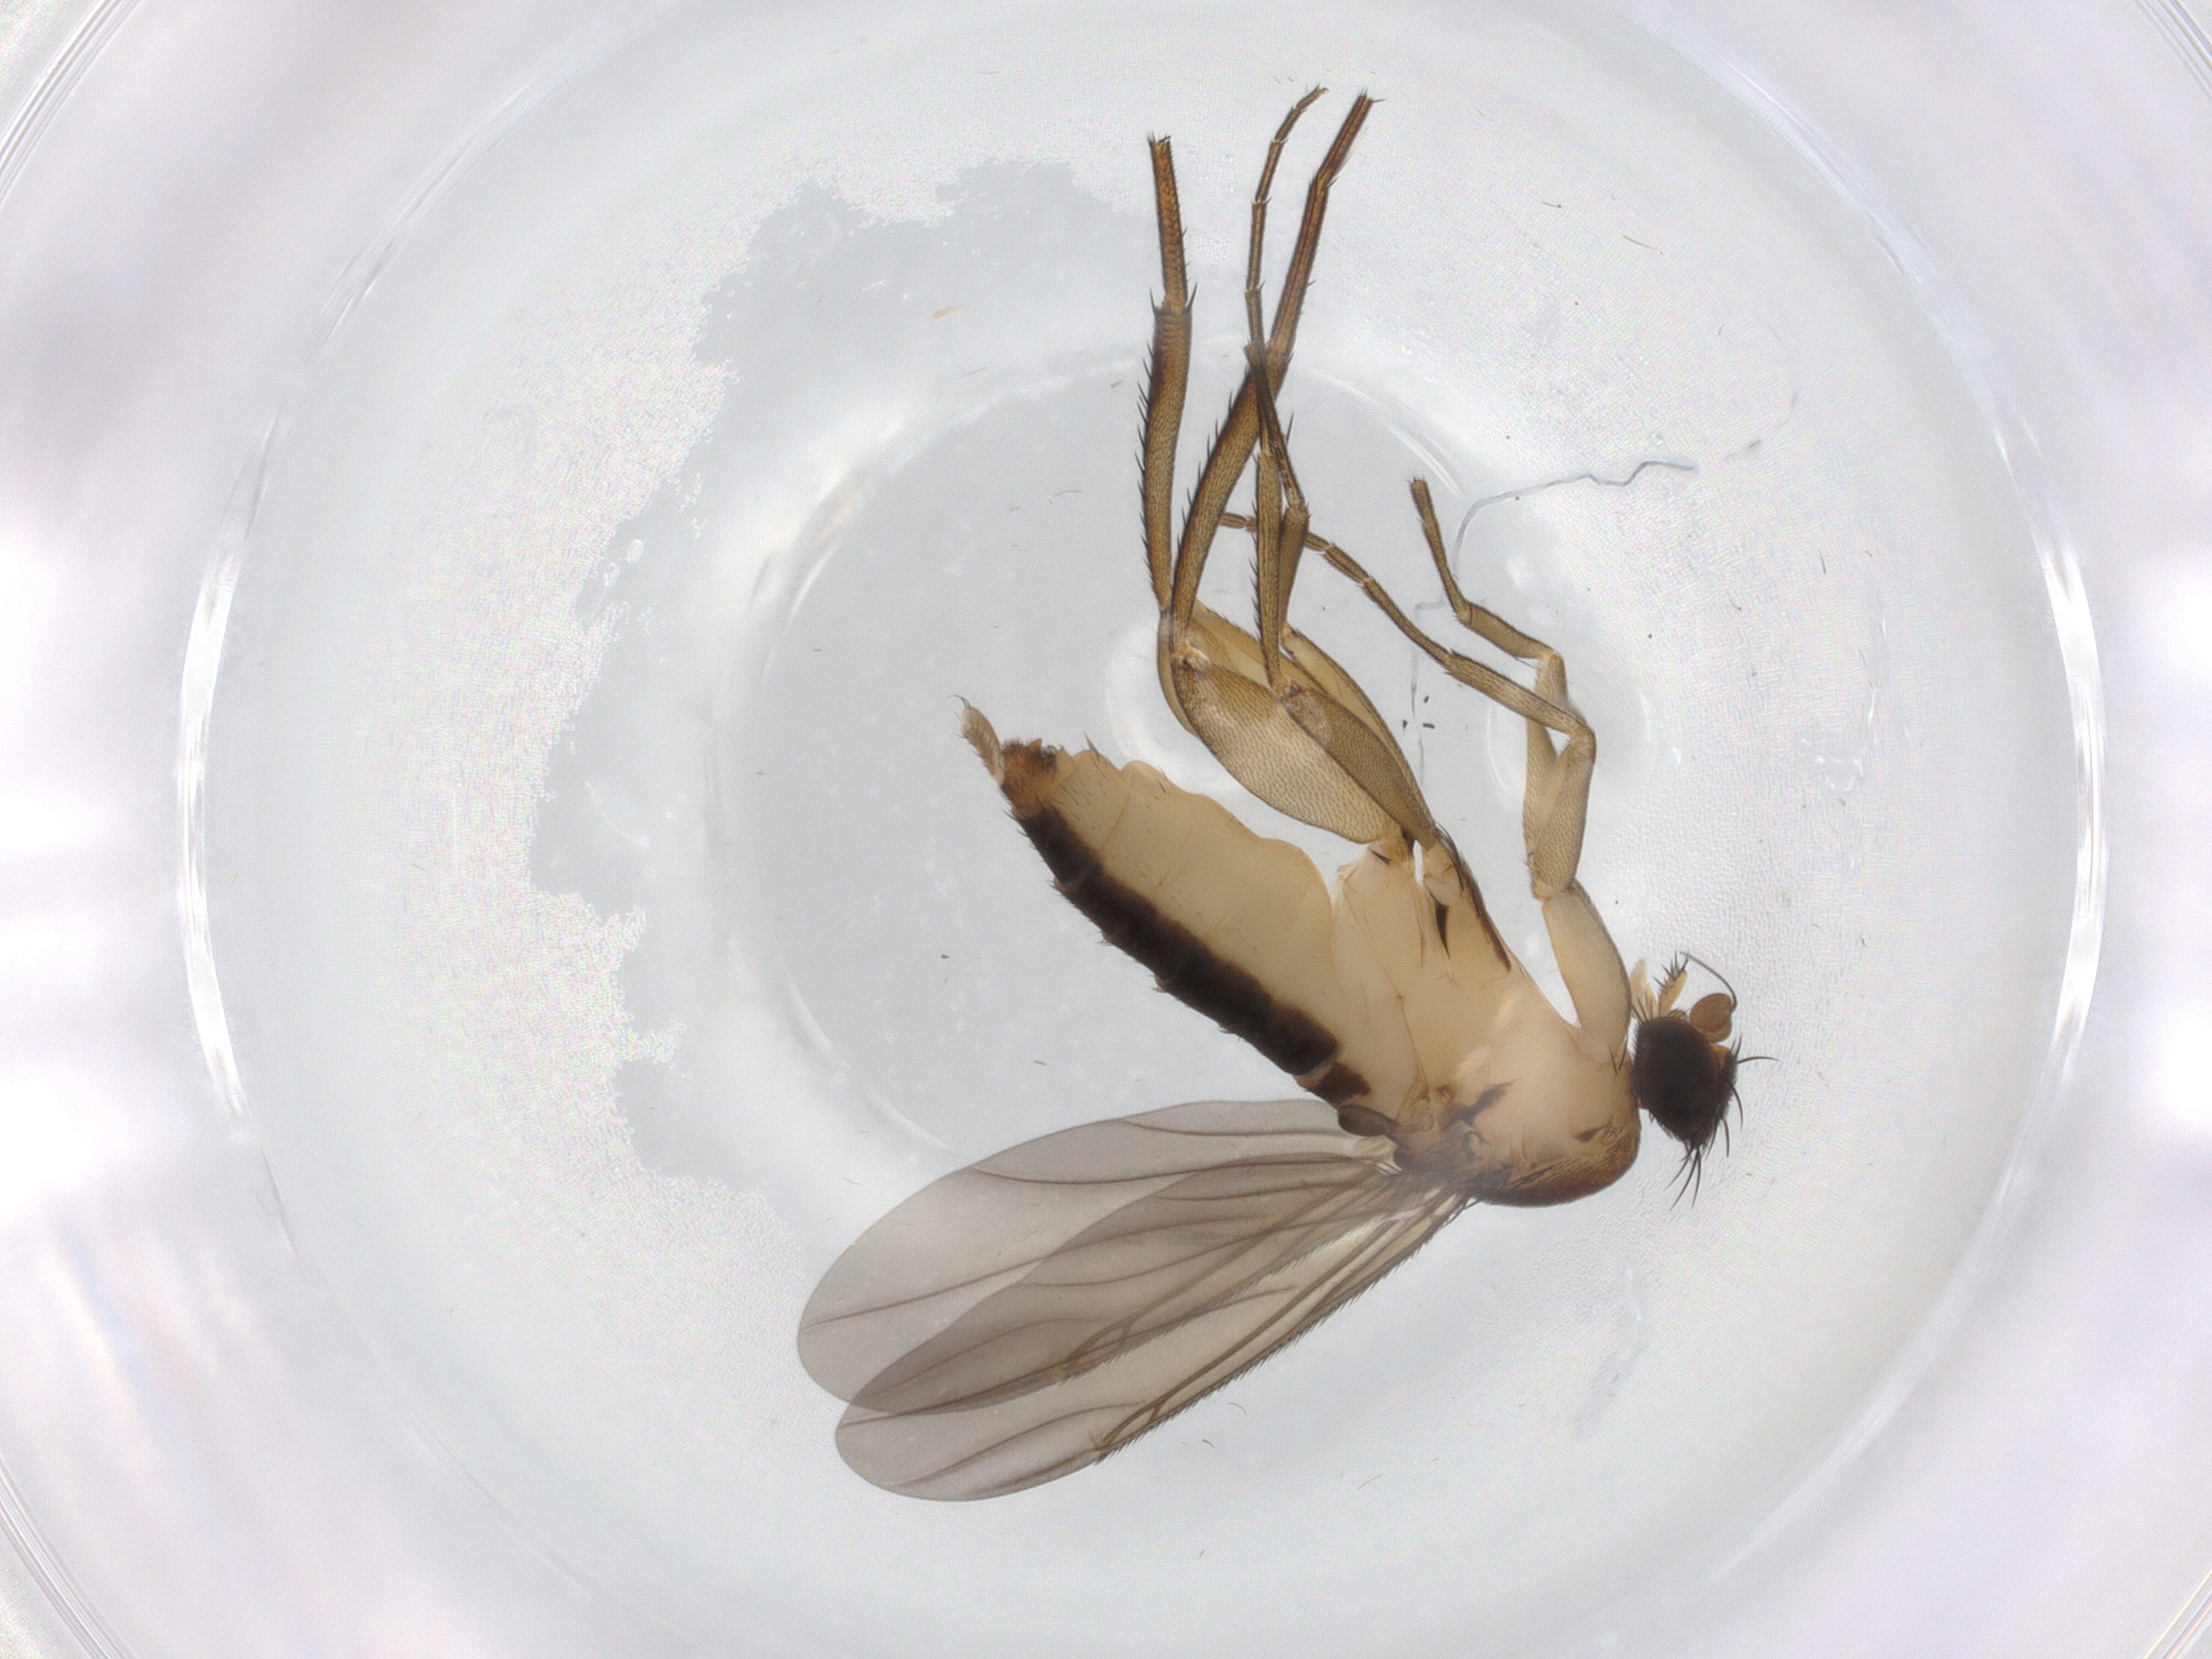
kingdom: Animalia
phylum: Arthropoda
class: Insecta
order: Diptera
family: Phoridae
